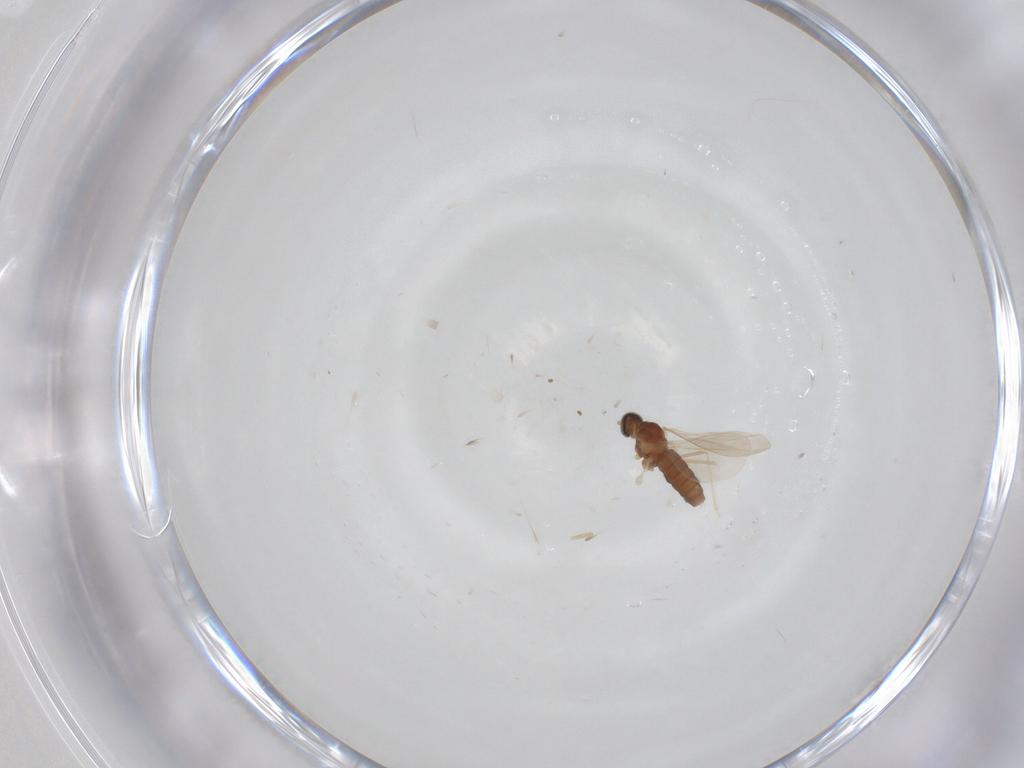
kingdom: Animalia
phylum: Arthropoda
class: Insecta
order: Diptera
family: Cecidomyiidae
